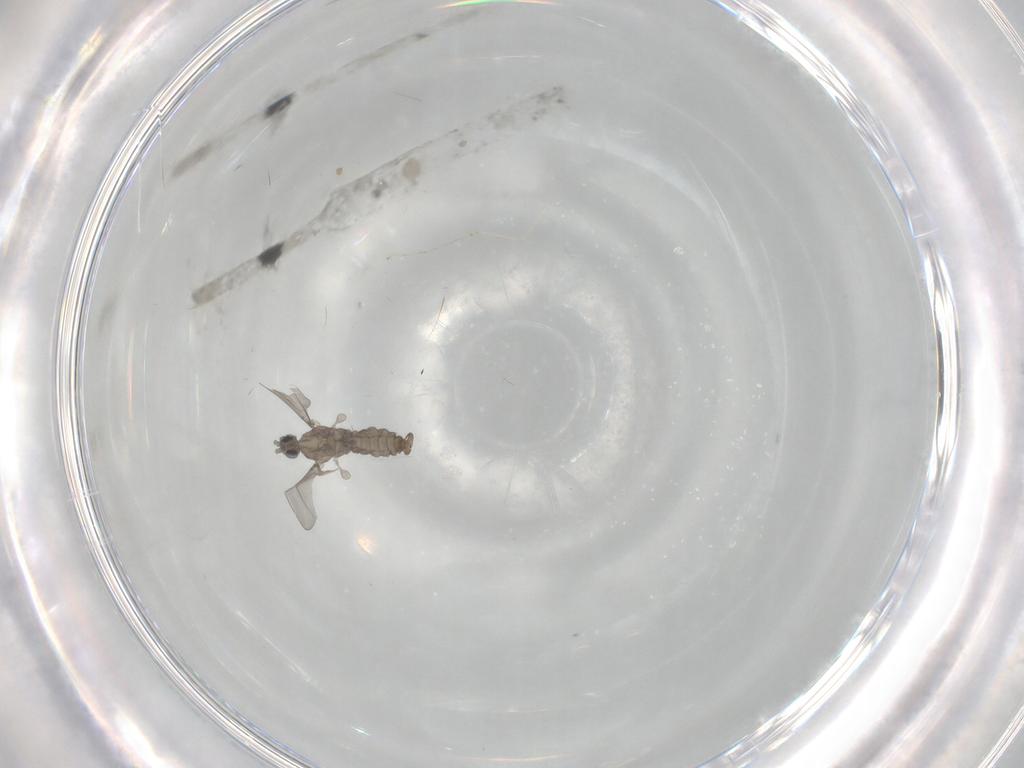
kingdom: Animalia
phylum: Arthropoda
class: Insecta
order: Diptera
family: Cecidomyiidae
